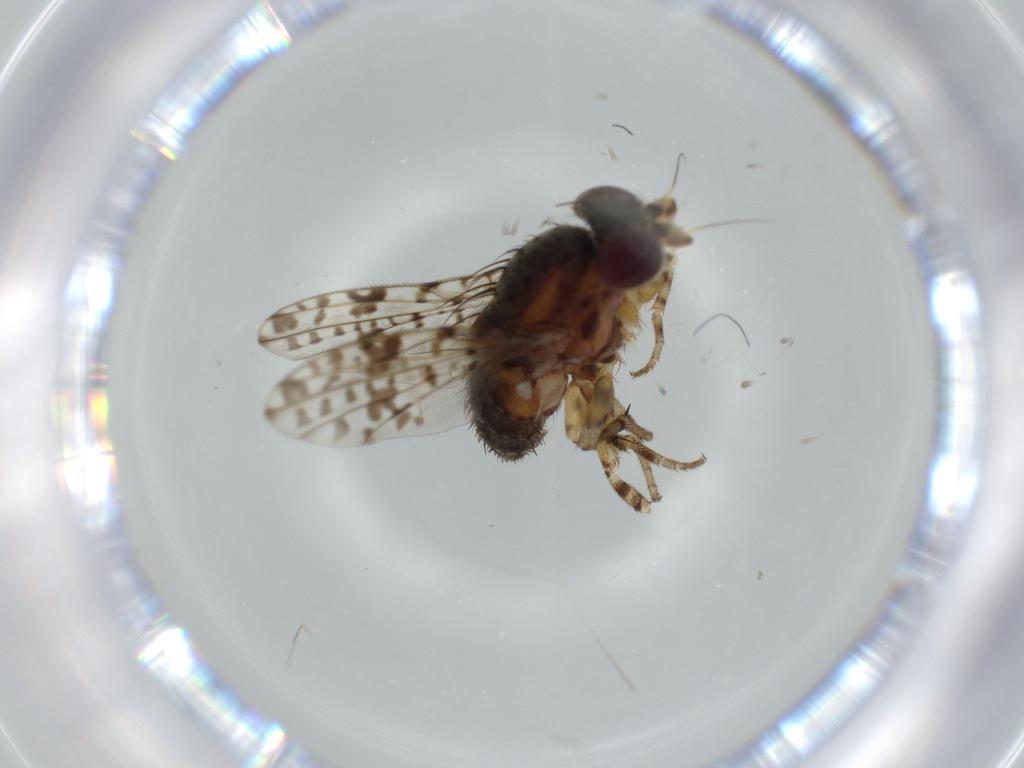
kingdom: Animalia
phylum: Arthropoda
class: Insecta
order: Diptera
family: Odiniidae
